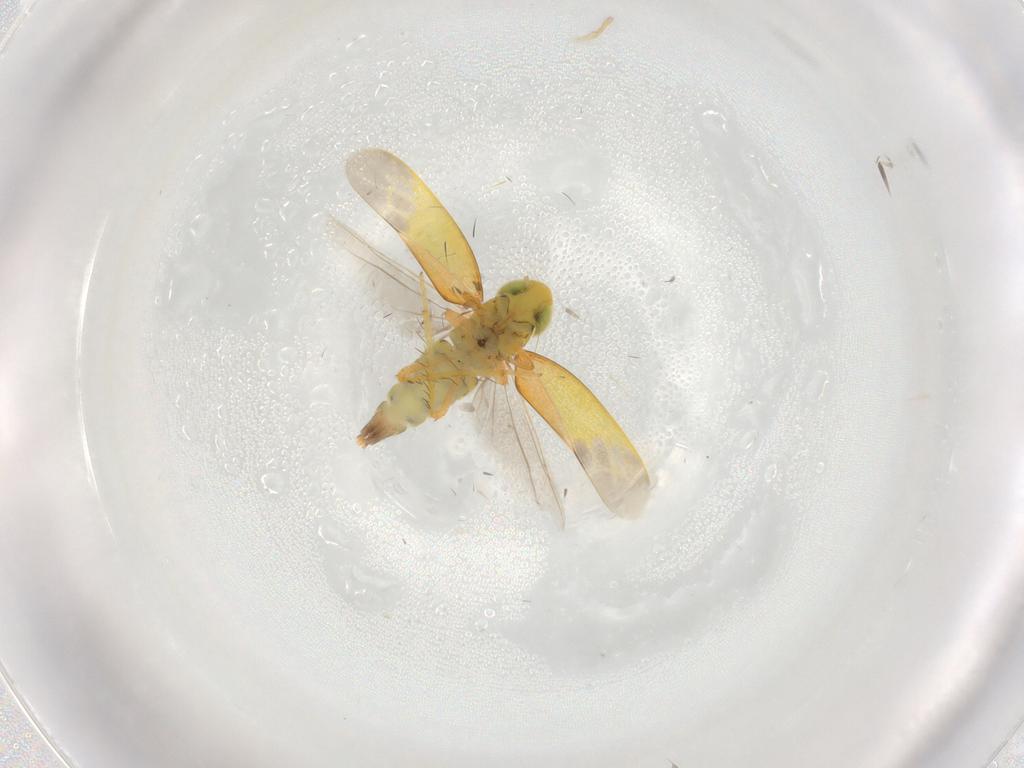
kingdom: Animalia
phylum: Arthropoda
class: Insecta
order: Hemiptera
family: Cicadellidae
